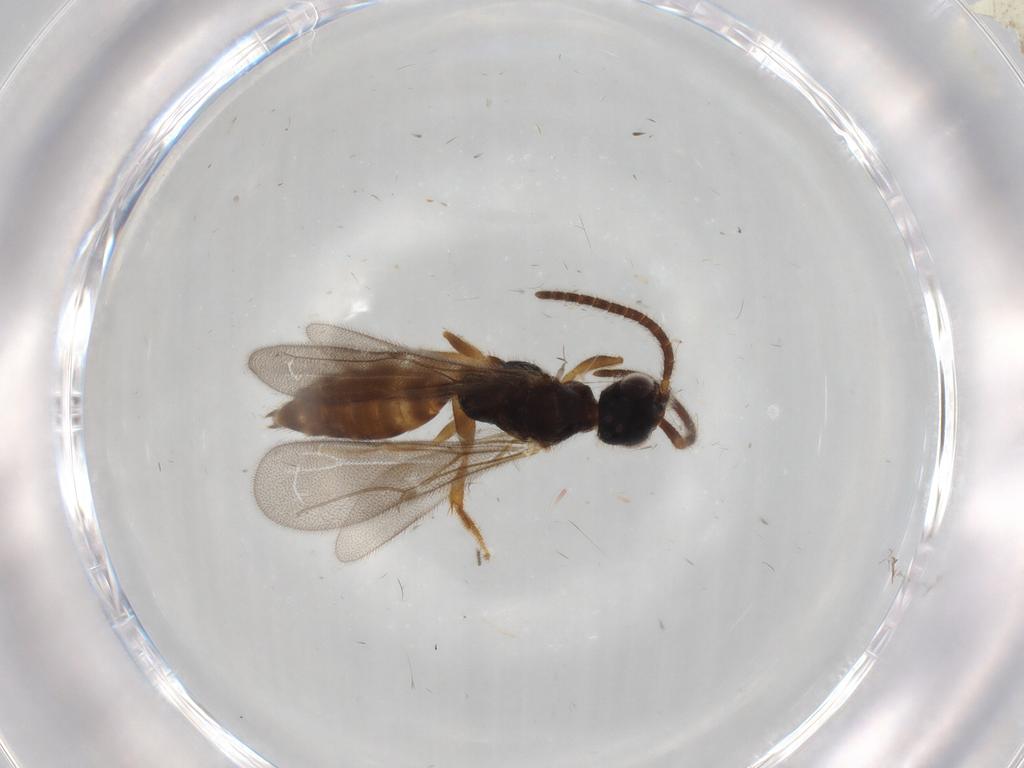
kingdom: Animalia
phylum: Arthropoda
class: Insecta
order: Hymenoptera
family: Bethylidae
